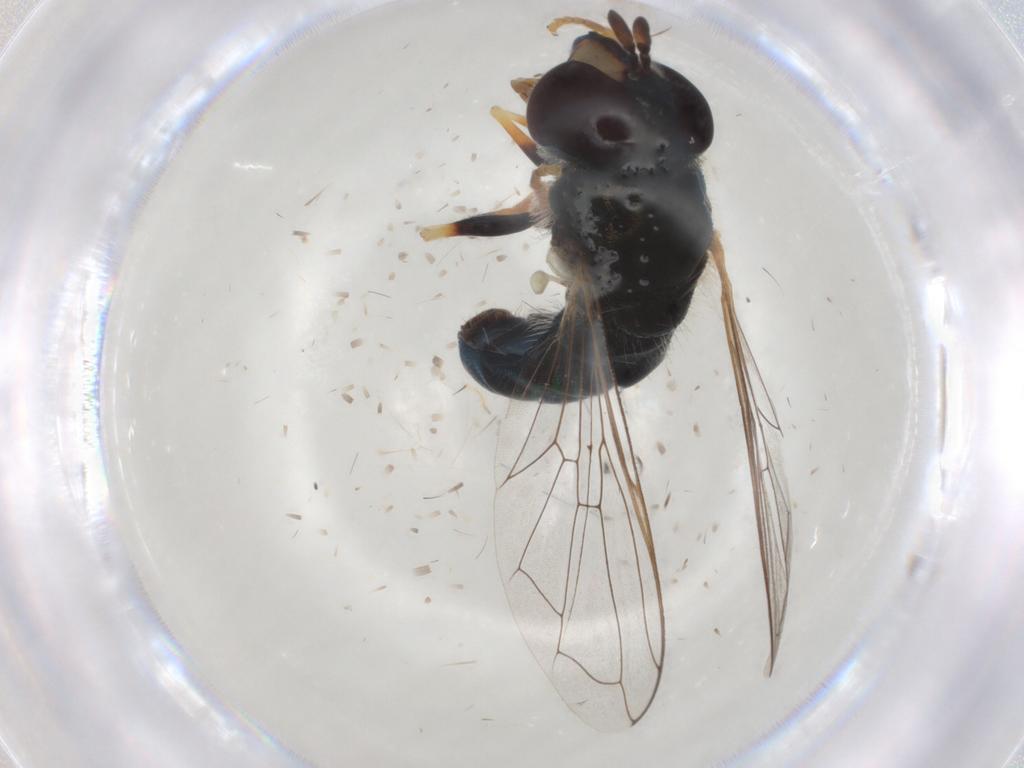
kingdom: Animalia
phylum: Arthropoda
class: Insecta
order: Diptera
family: Syrphidae
